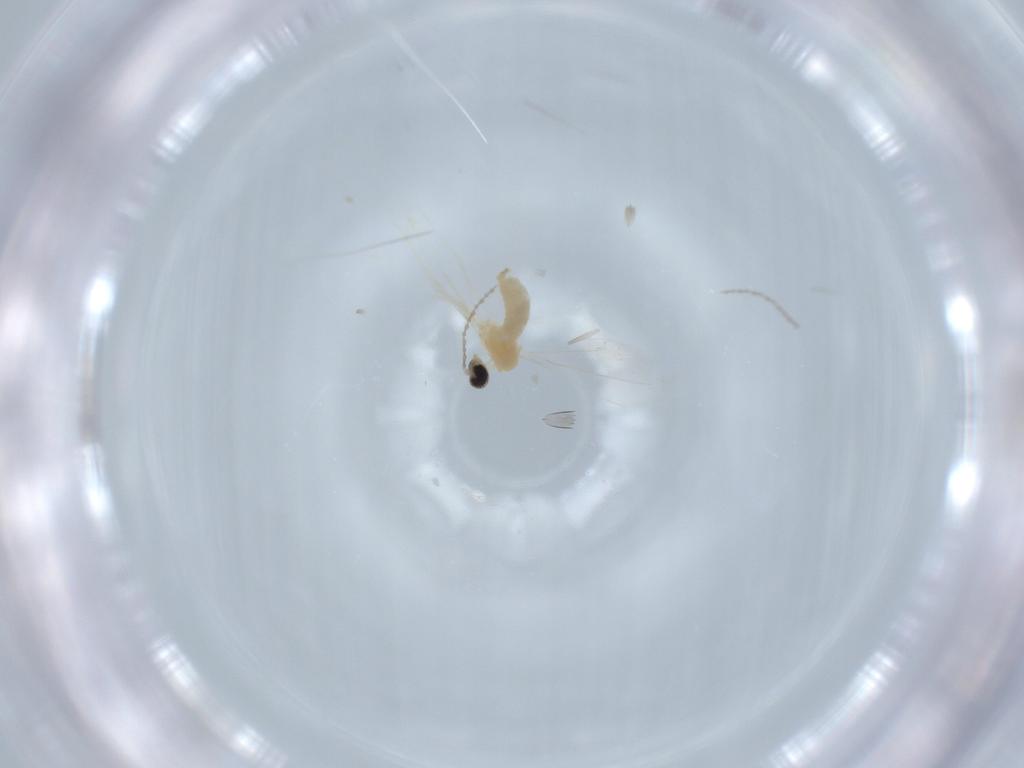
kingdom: Animalia
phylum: Arthropoda
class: Insecta
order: Diptera
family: Cecidomyiidae
